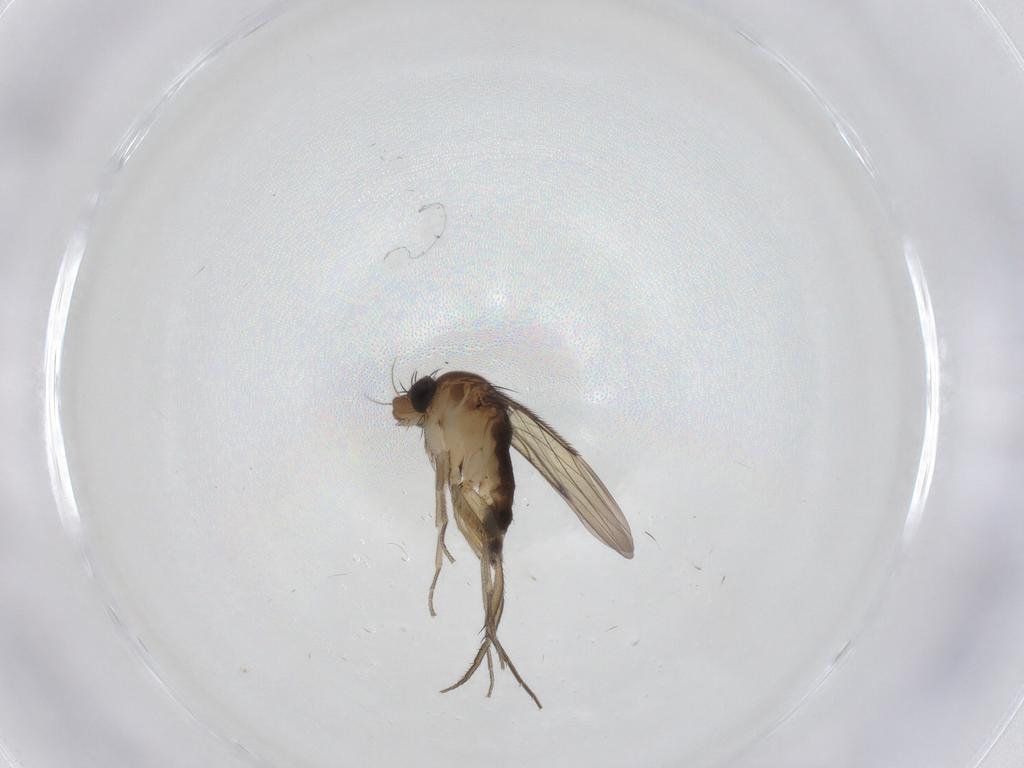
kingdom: Animalia
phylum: Arthropoda
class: Insecta
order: Diptera
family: Phoridae
